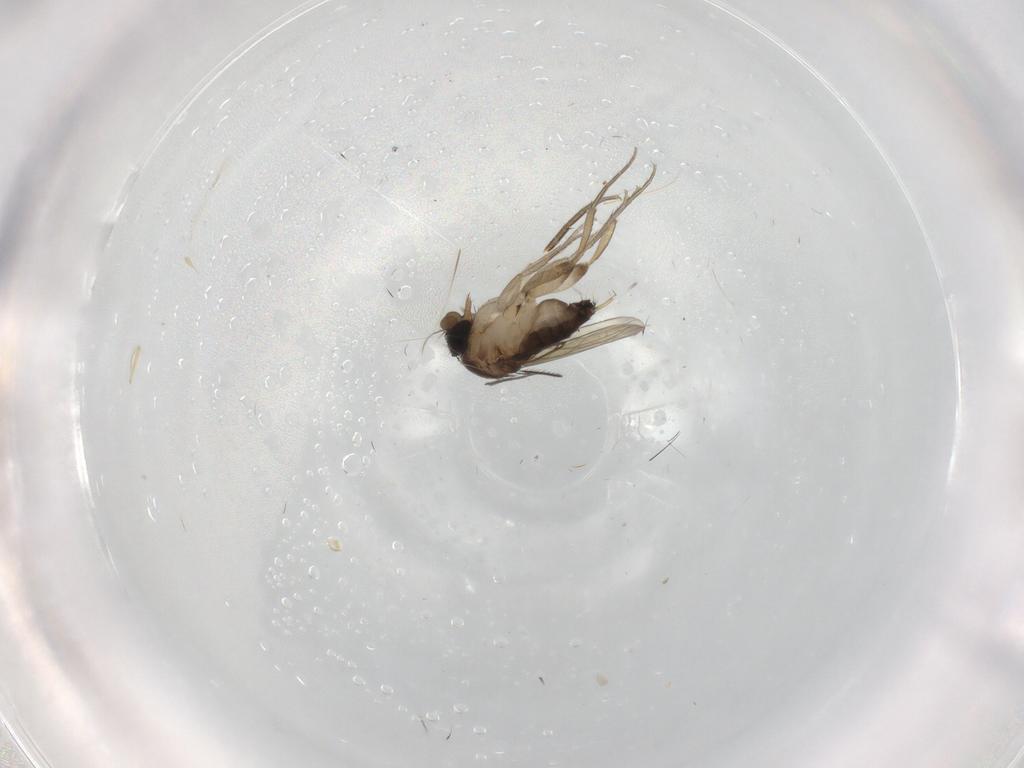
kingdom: Animalia
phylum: Arthropoda
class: Insecta
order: Diptera
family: Phoridae
